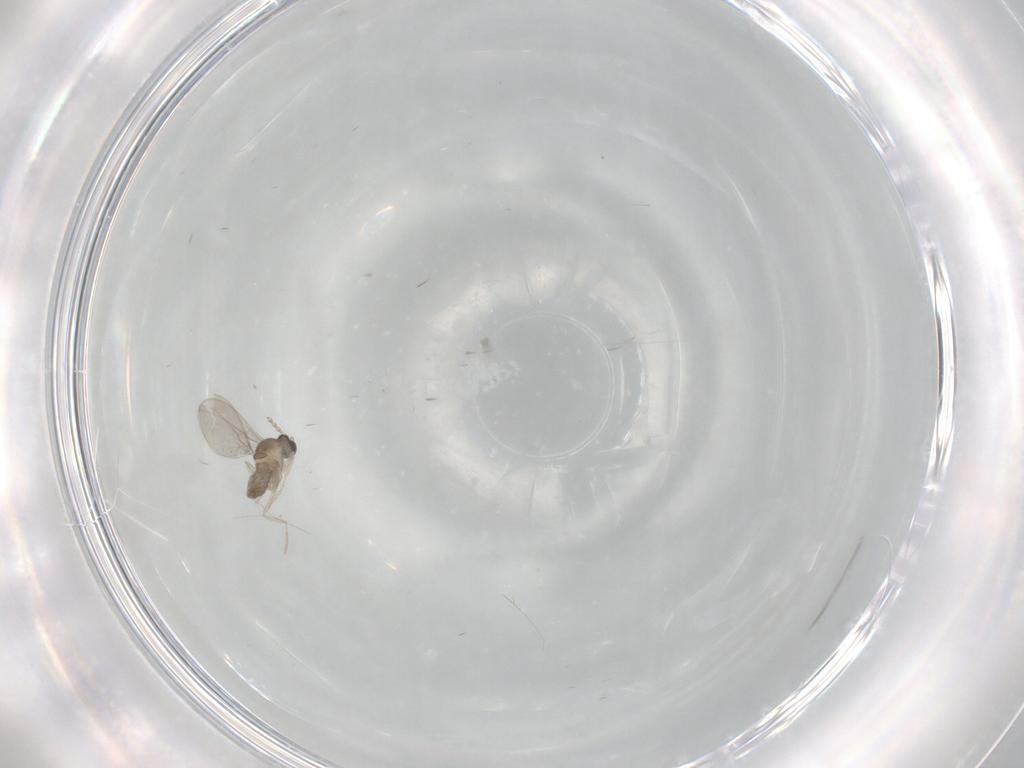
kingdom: Animalia
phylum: Arthropoda
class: Insecta
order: Diptera
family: Cecidomyiidae
